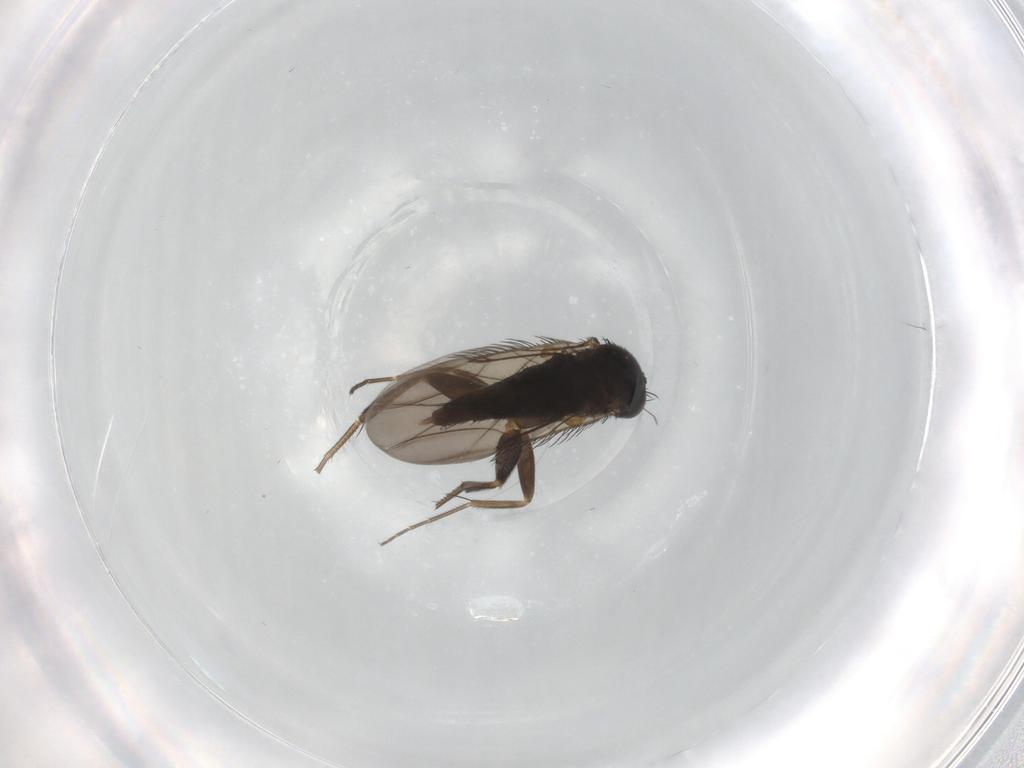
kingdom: Animalia
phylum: Arthropoda
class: Insecta
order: Diptera
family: Phoridae
